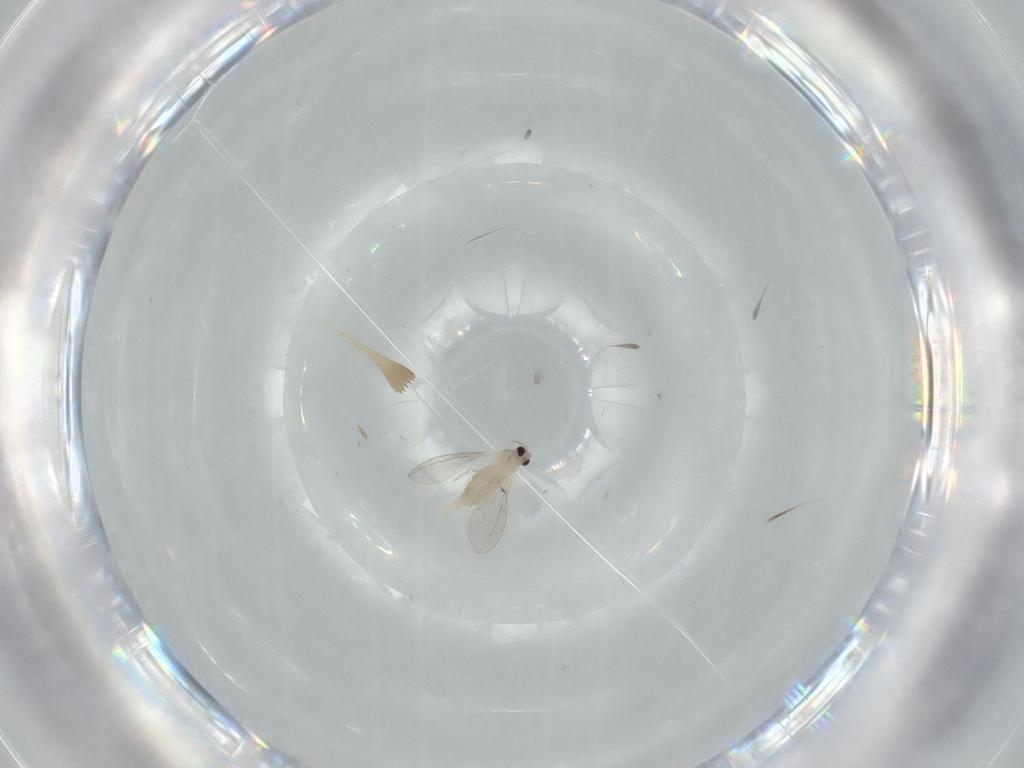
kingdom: Animalia
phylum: Arthropoda
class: Insecta
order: Diptera
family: Cecidomyiidae
